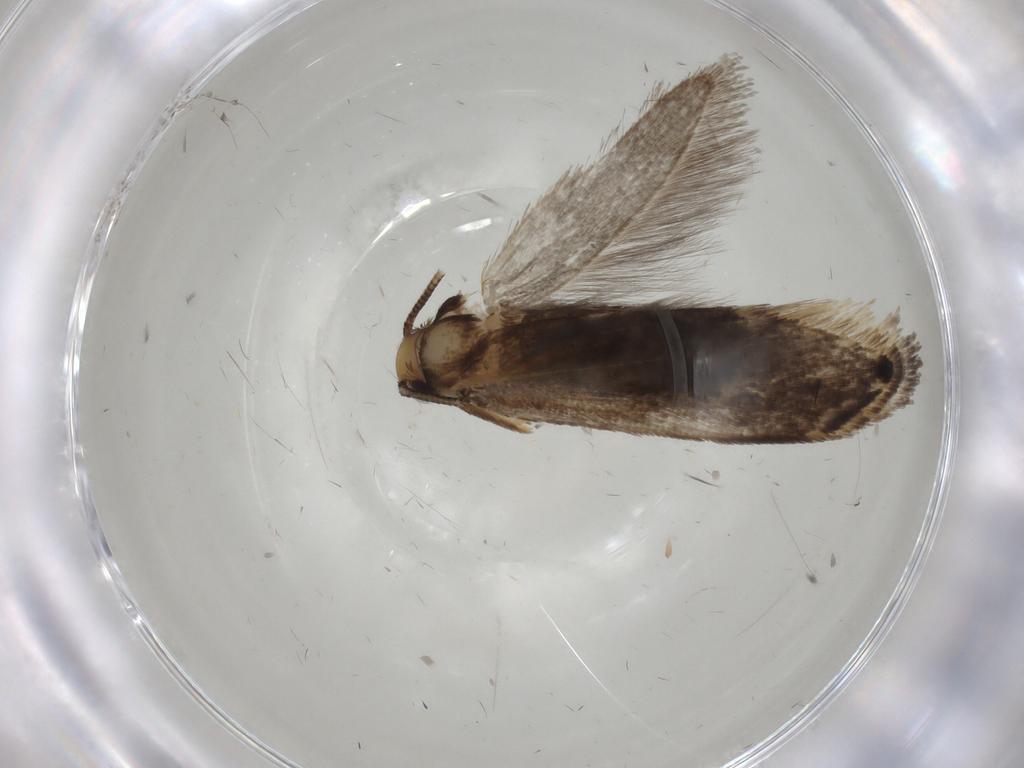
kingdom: Animalia
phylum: Arthropoda
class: Insecta
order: Lepidoptera
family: Tineidae
